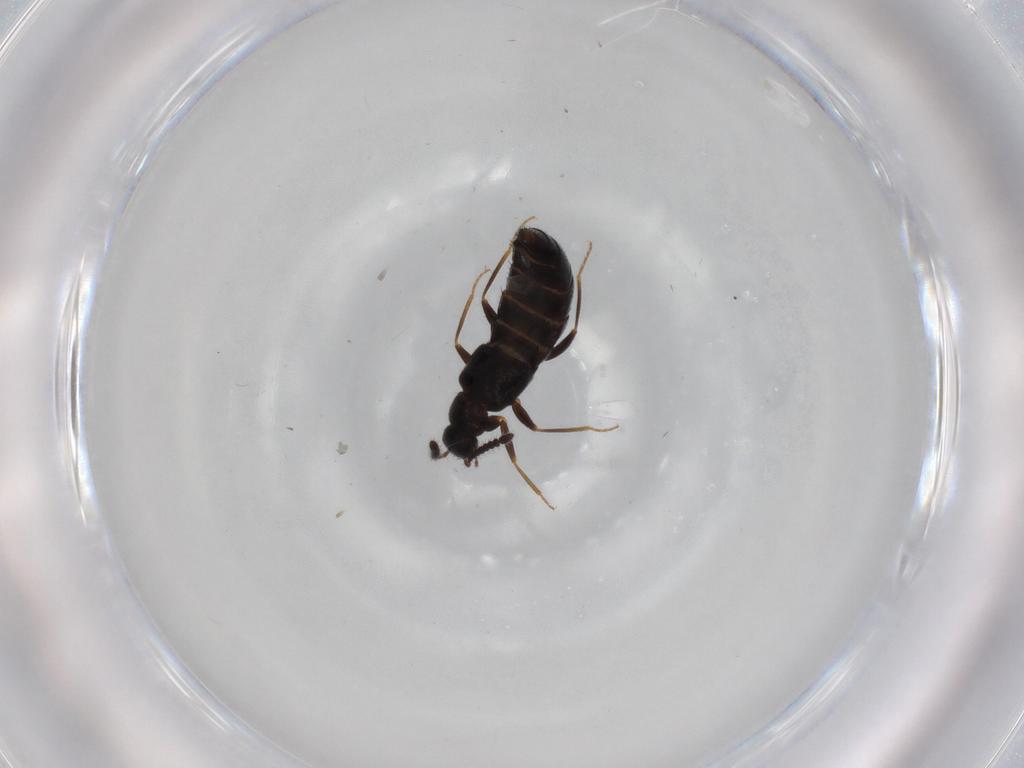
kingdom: Animalia
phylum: Arthropoda
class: Insecta
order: Coleoptera
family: Staphylinidae
